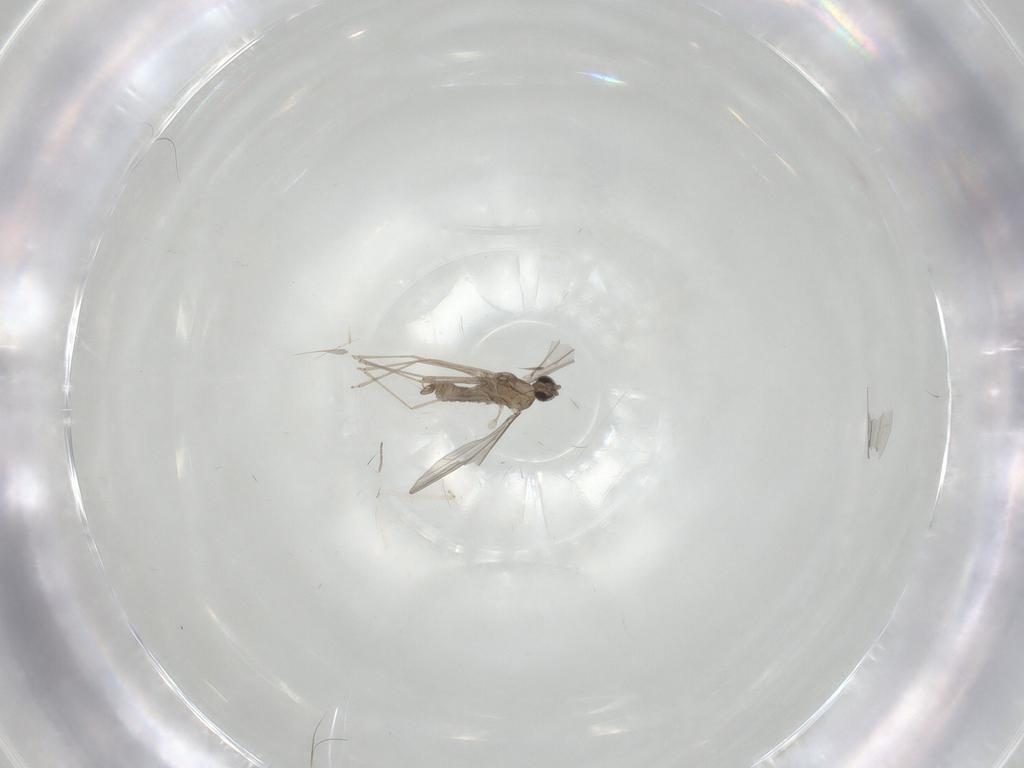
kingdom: Animalia
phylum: Arthropoda
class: Insecta
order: Diptera
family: Cecidomyiidae
